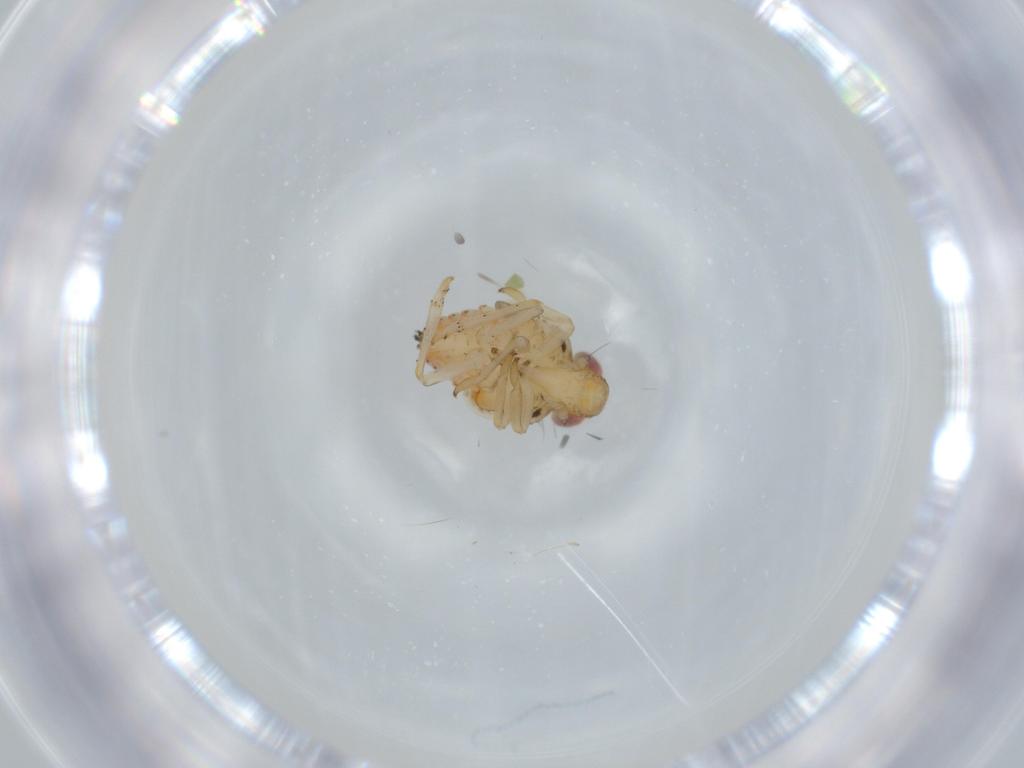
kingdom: Animalia
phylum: Arthropoda
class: Insecta
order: Hemiptera
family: Issidae
